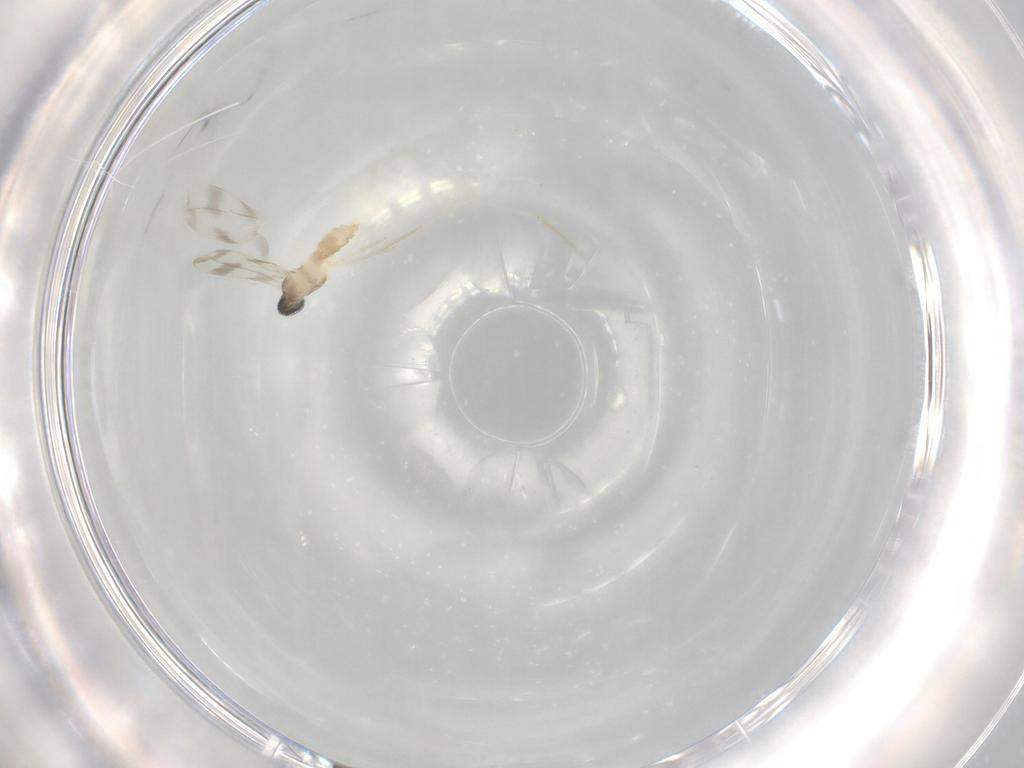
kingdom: Animalia
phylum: Arthropoda
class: Insecta
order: Diptera
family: Cecidomyiidae
